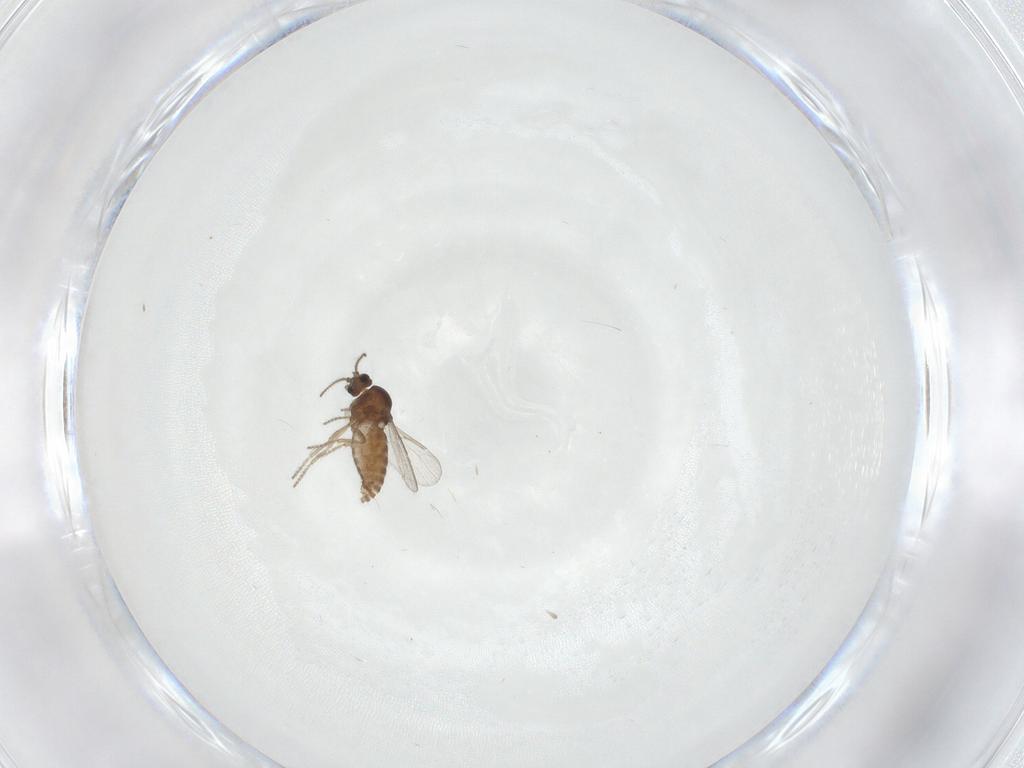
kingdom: Animalia
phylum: Arthropoda
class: Insecta
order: Diptera
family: Ceratopogonidae
